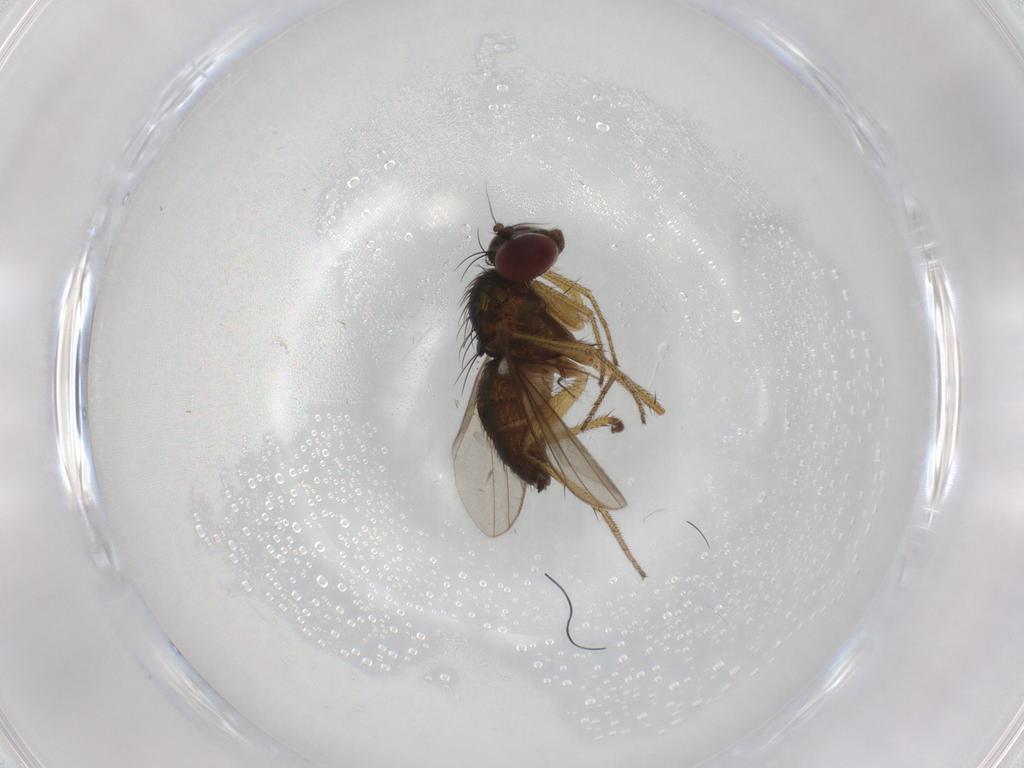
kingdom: Animalia
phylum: Arthropoda
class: Insecta
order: Diptera
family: Ceratopogonidae
